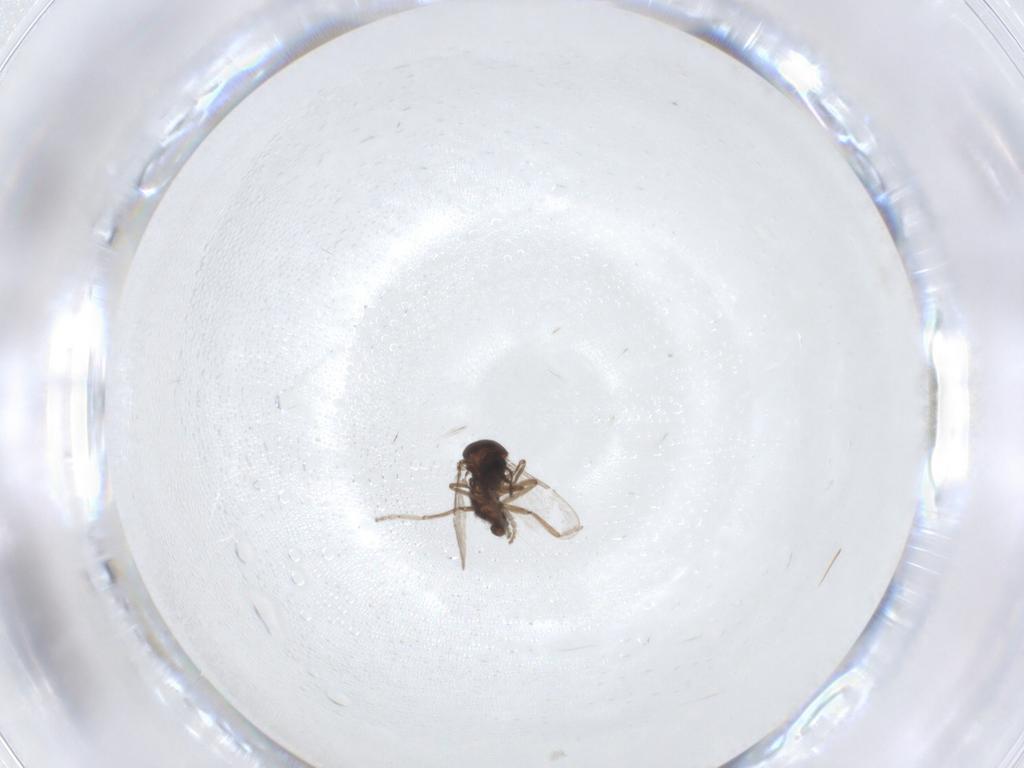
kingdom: Animalia
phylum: Arthropoda
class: Insecta
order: Diptera
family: Ceratopogonidae
